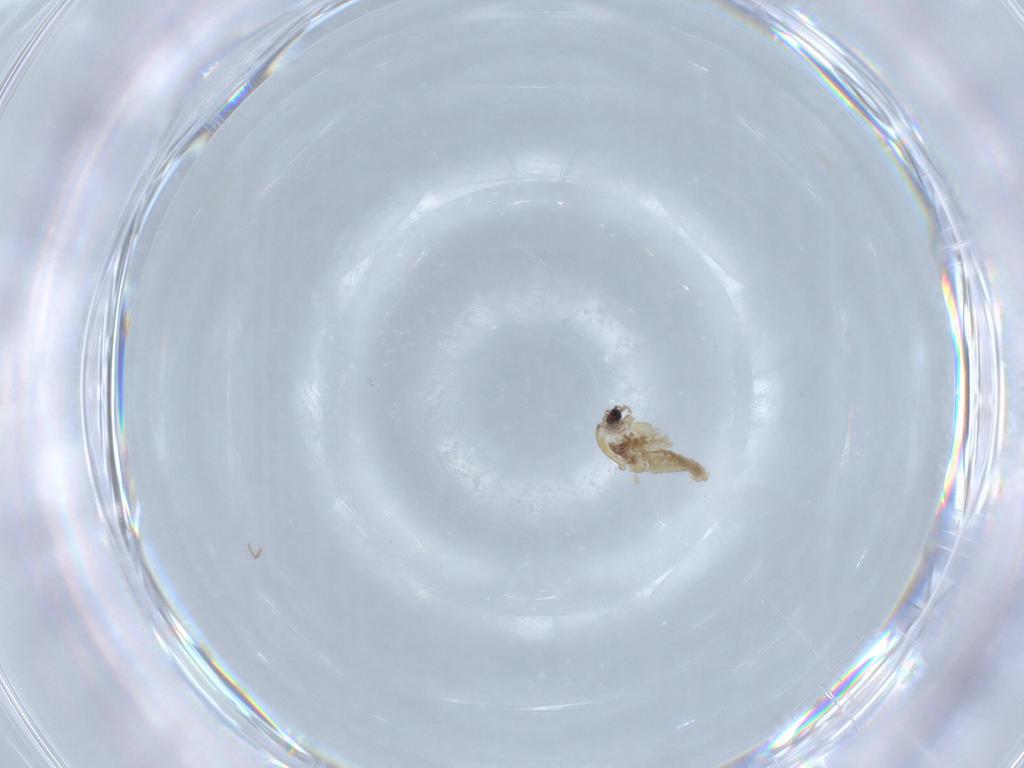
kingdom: Animalia
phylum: Arthropoda
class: Insecta
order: Diptera
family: Chironomidae
